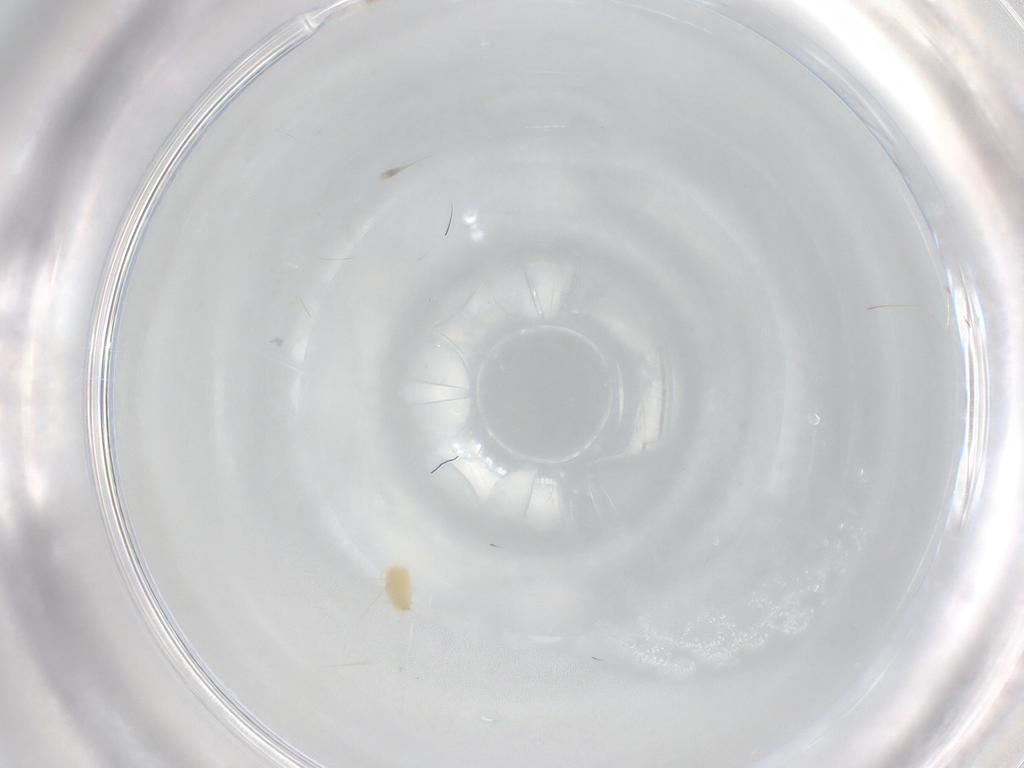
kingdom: Animalia
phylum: Arthropoda
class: Arachnida
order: Trombidiformes
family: Tetranychidae
